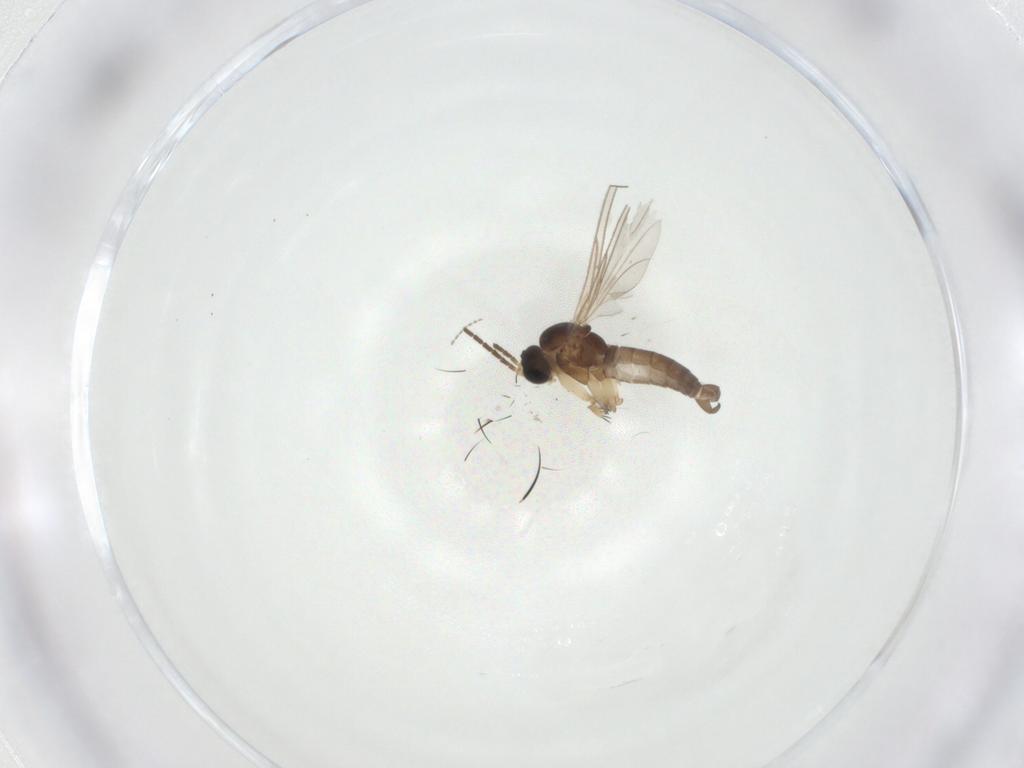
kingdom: Animalia
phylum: Arthropoda
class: Insecta
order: Diptera
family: Sciaridae
